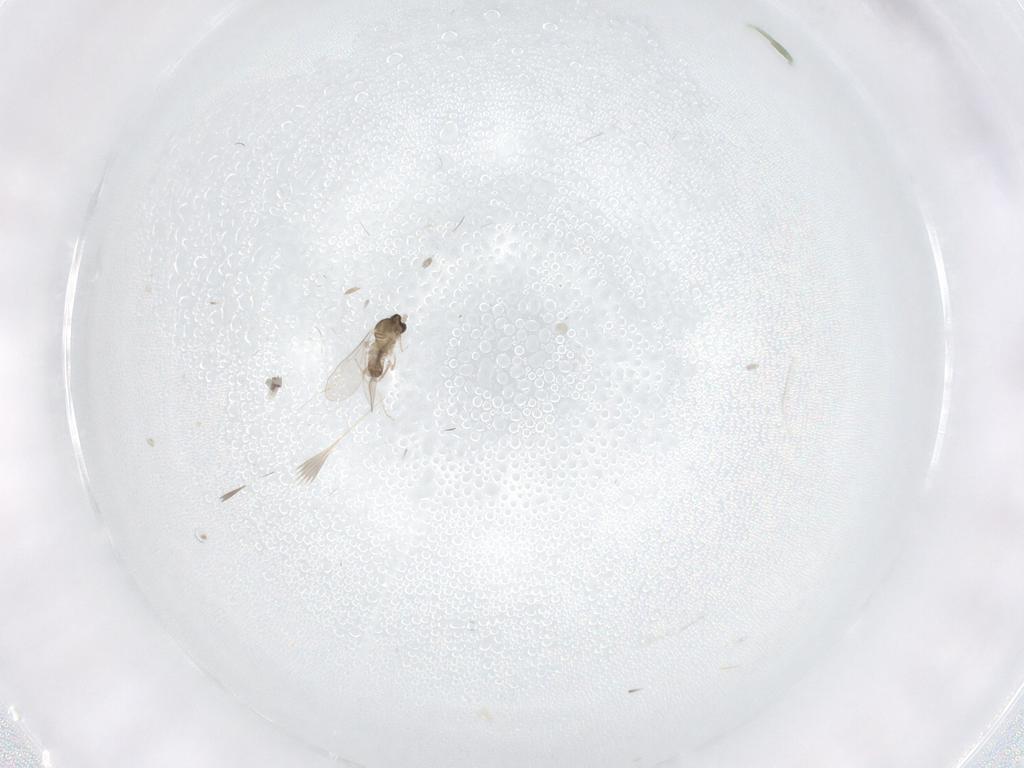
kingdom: Animalia
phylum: Arthropoda
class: Insecta
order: Diptera
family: Cecidomyiidae
